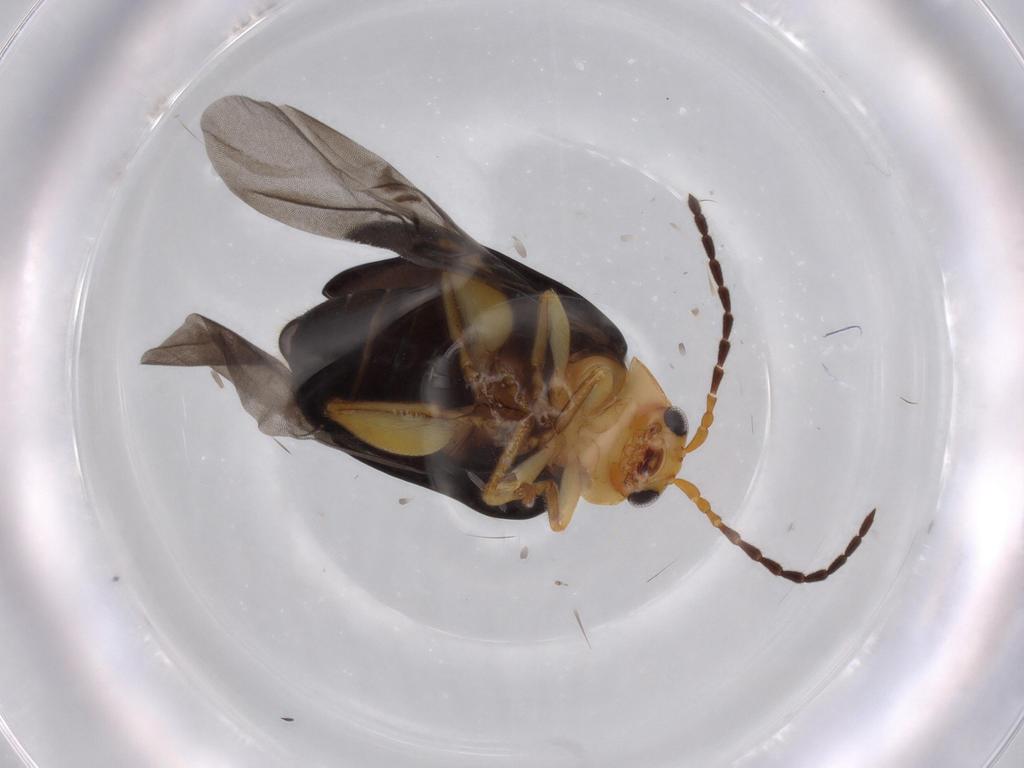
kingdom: Animalia
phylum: Arthropoda
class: Insecta
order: Coleoptera
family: Chrysomelidae
